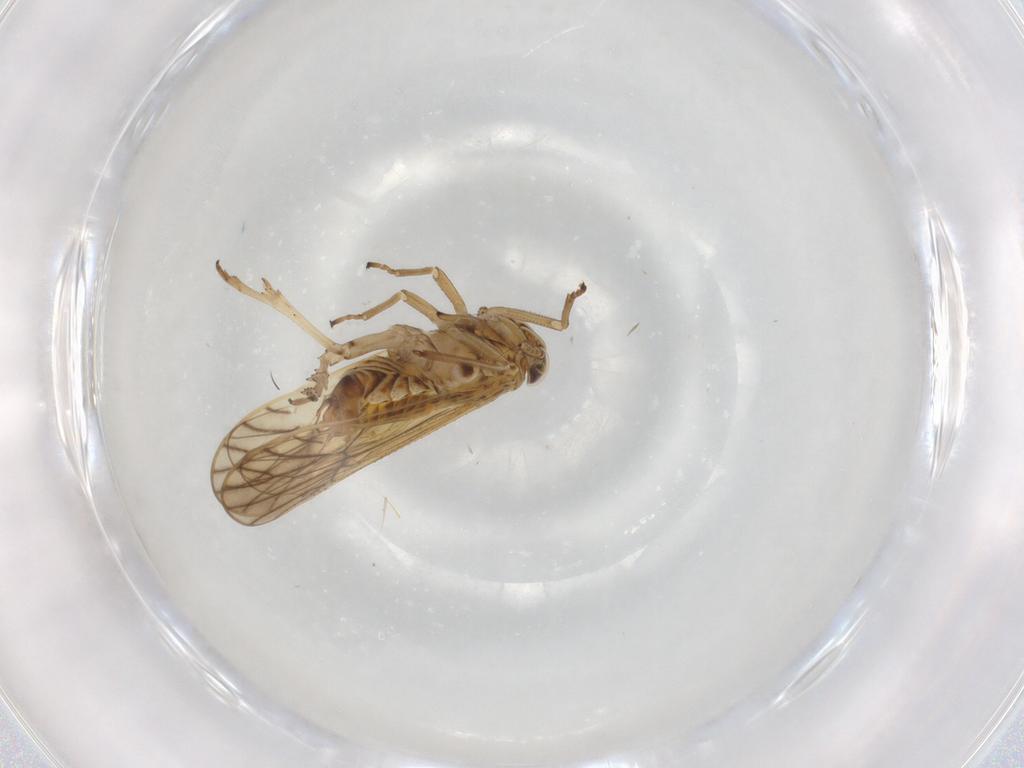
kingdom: Animalia
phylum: Arthropoda
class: Insecta
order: Hemiptera
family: Delphacidae
